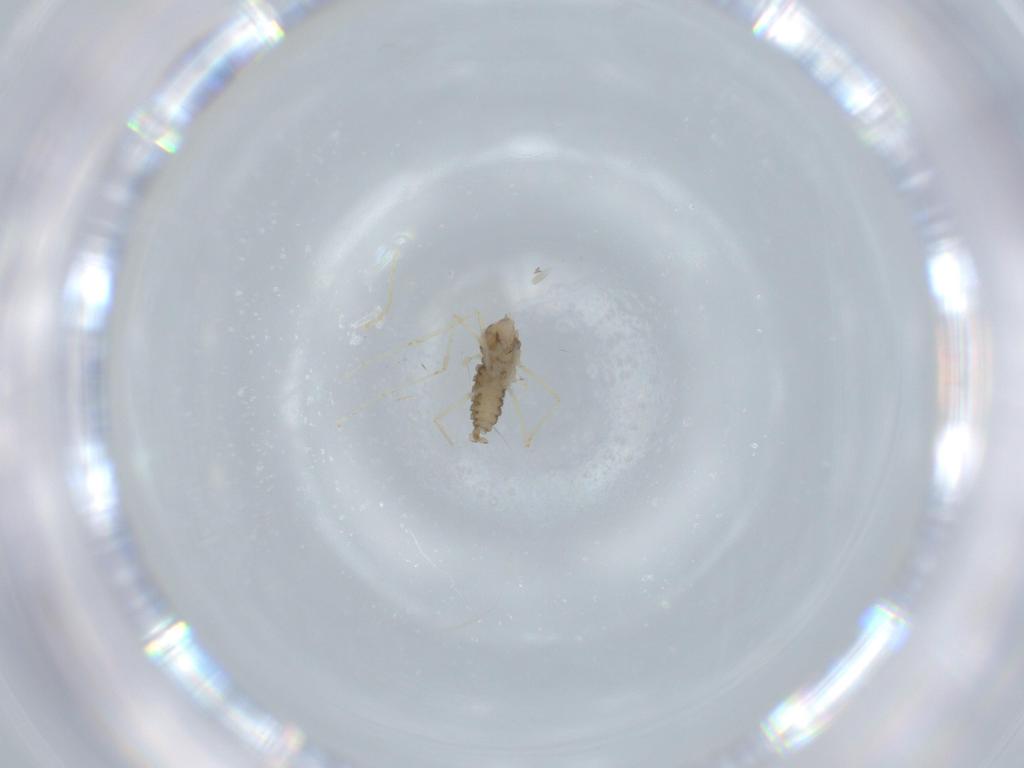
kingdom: Animalia
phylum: Arthropoda
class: Insecta
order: Diptera
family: Cecidomyiidae
